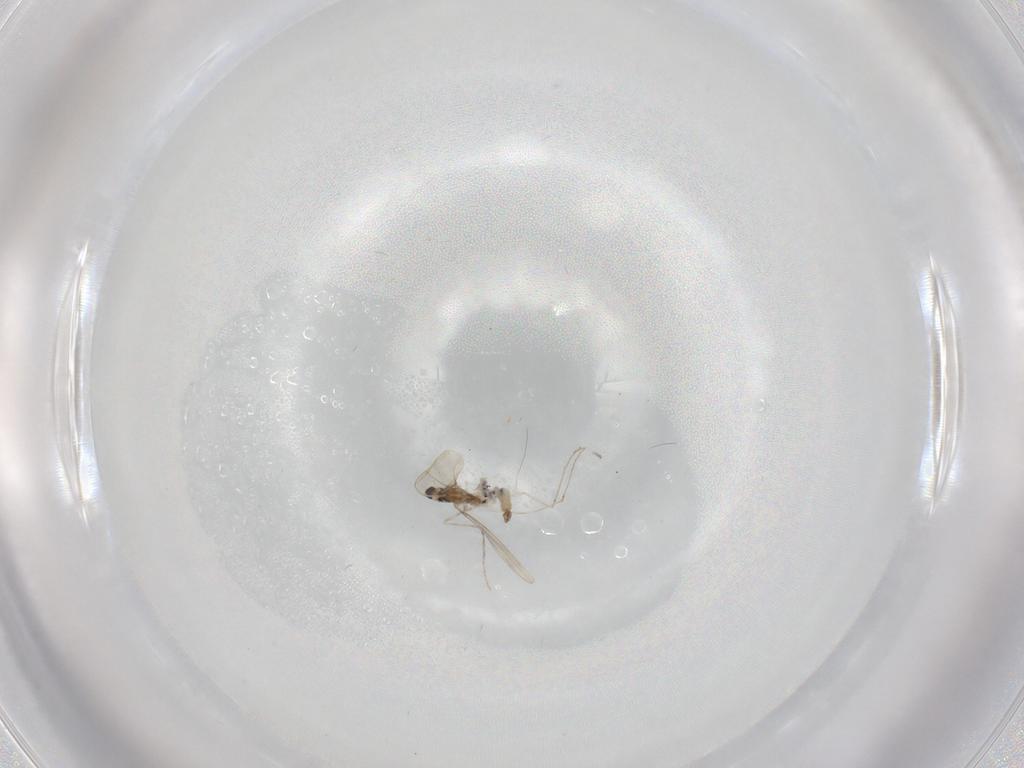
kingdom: Animalia
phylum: Arthropoda
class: Insecta
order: Diptera
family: Cecidomyiidae
